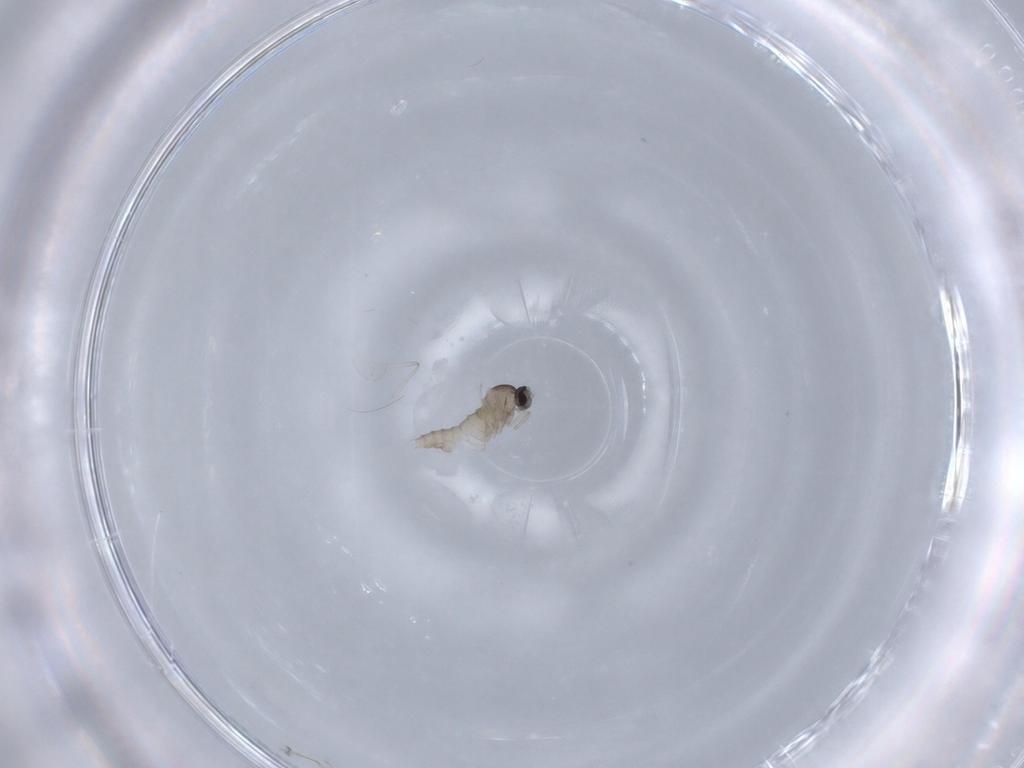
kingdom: Animalia
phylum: Arthropoda
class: Insecta
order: Diptera
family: Cecidomyiidae
